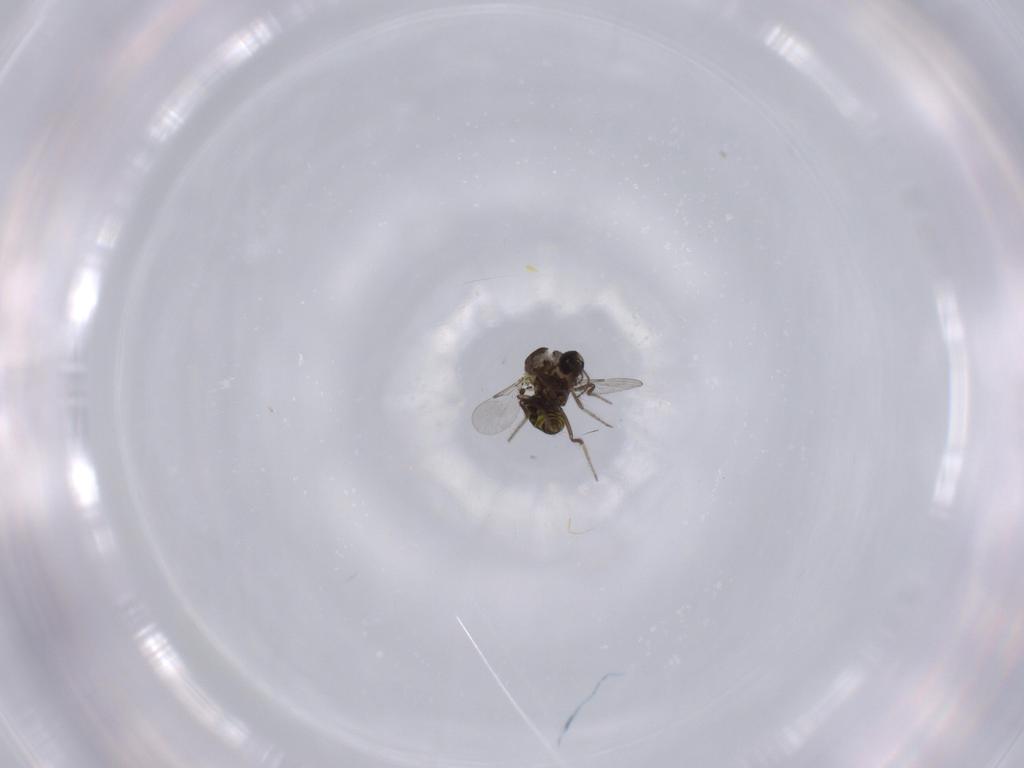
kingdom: Animalia
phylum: Arthropoda
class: Insecta
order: Diptera
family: Ceratopogonidae
